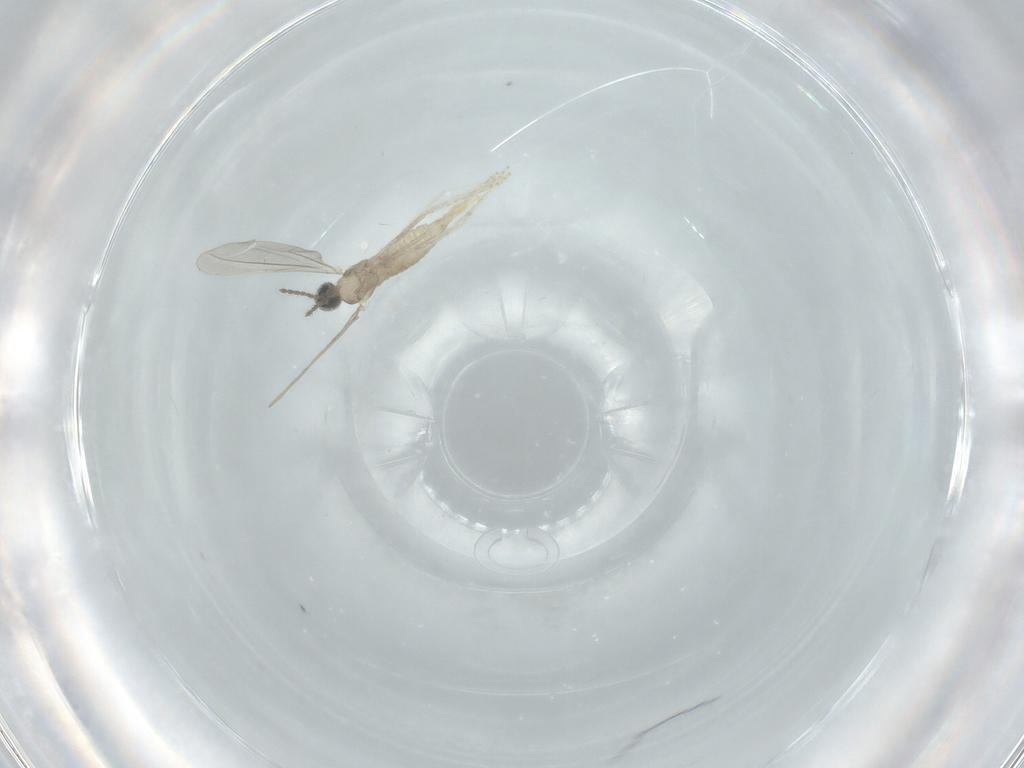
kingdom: Animalia
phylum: Arthropoda
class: Insecta
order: Diptera
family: Cecidomyiidae
